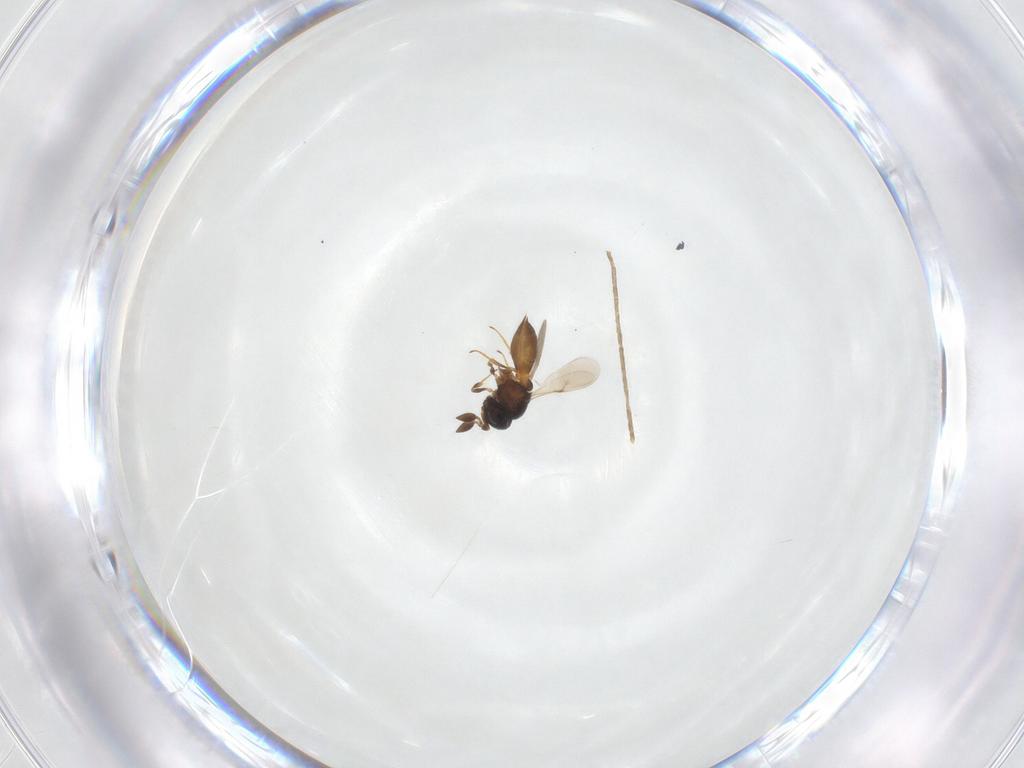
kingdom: Animalia
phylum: Arthropoda
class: Insecta
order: Hymenoptera
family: Scelionidae
